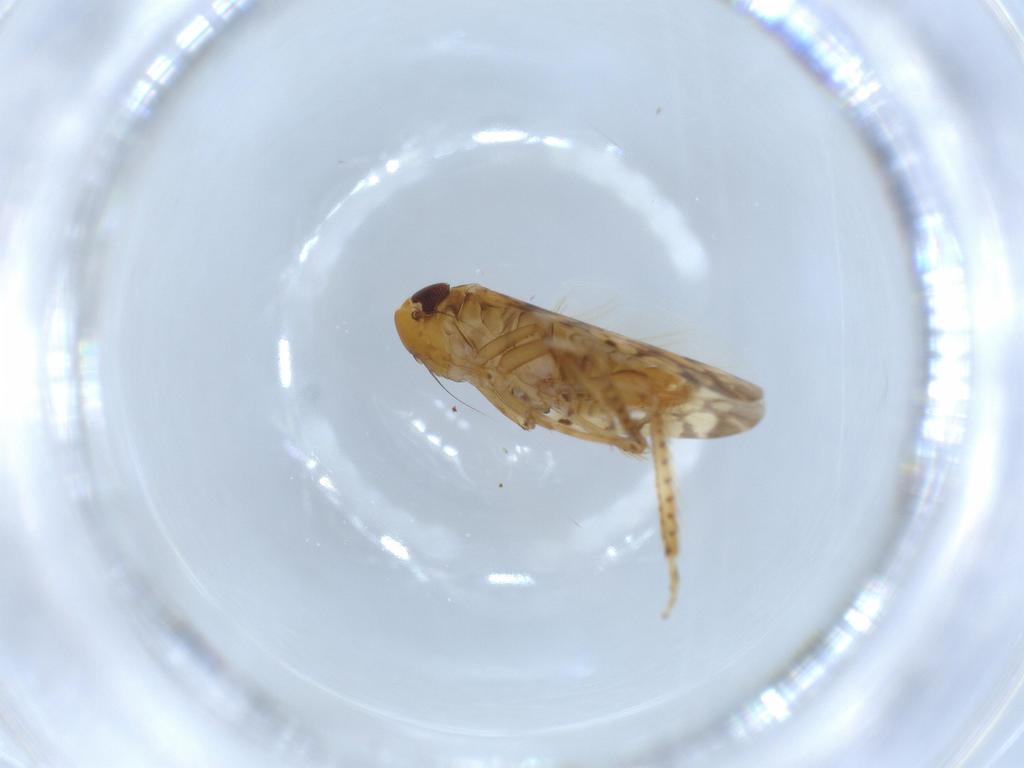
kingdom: Animalia
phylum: Arthropoda
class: Insecta
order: Hemiptera
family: Cicadellidae
